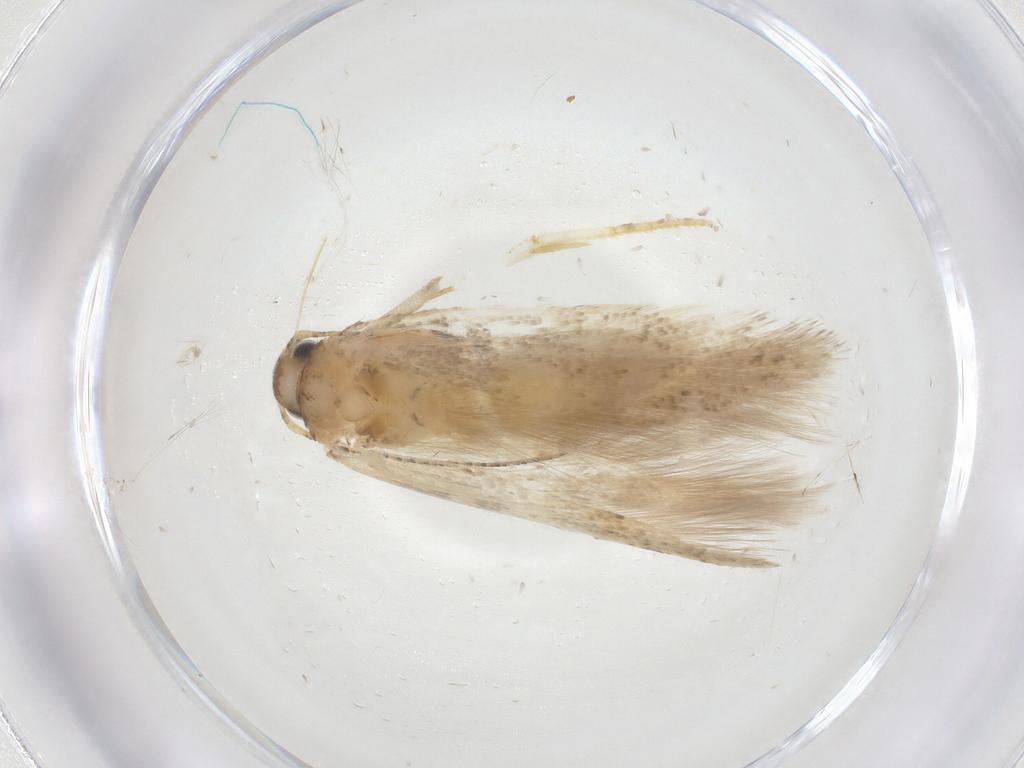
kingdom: Animalia
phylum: Arthropoda
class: Insecta
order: Lepidoptera
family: Gelechiidae
